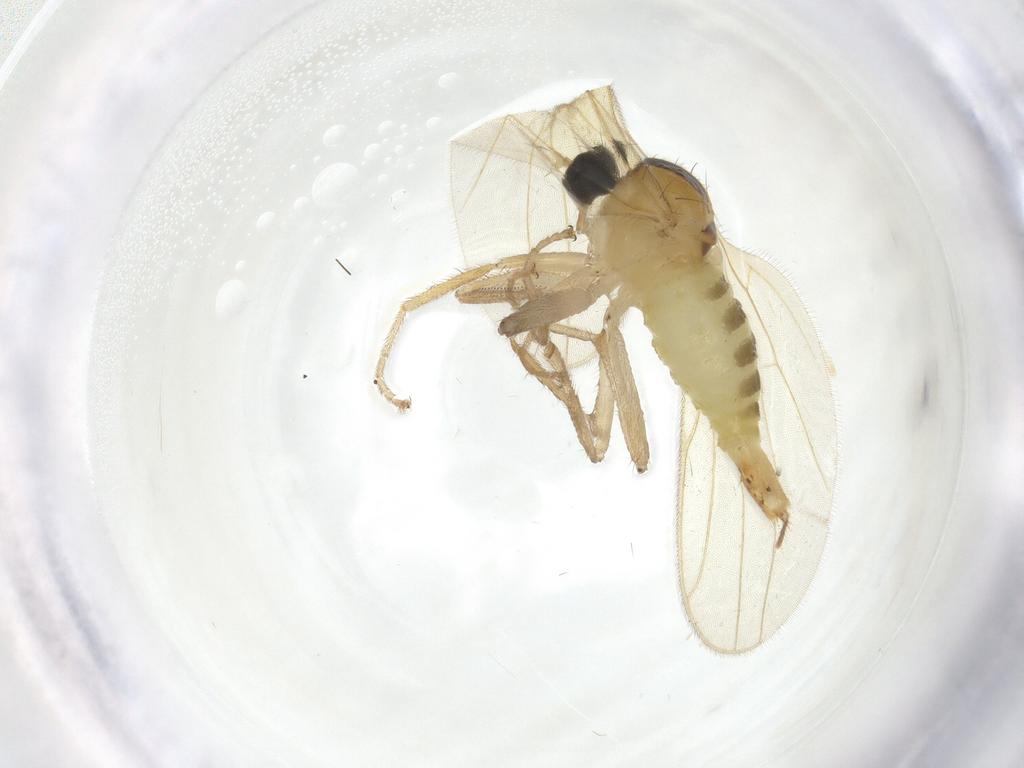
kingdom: Animalia
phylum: Arthropoda
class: Insecta
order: Diptera
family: Hybotidae
